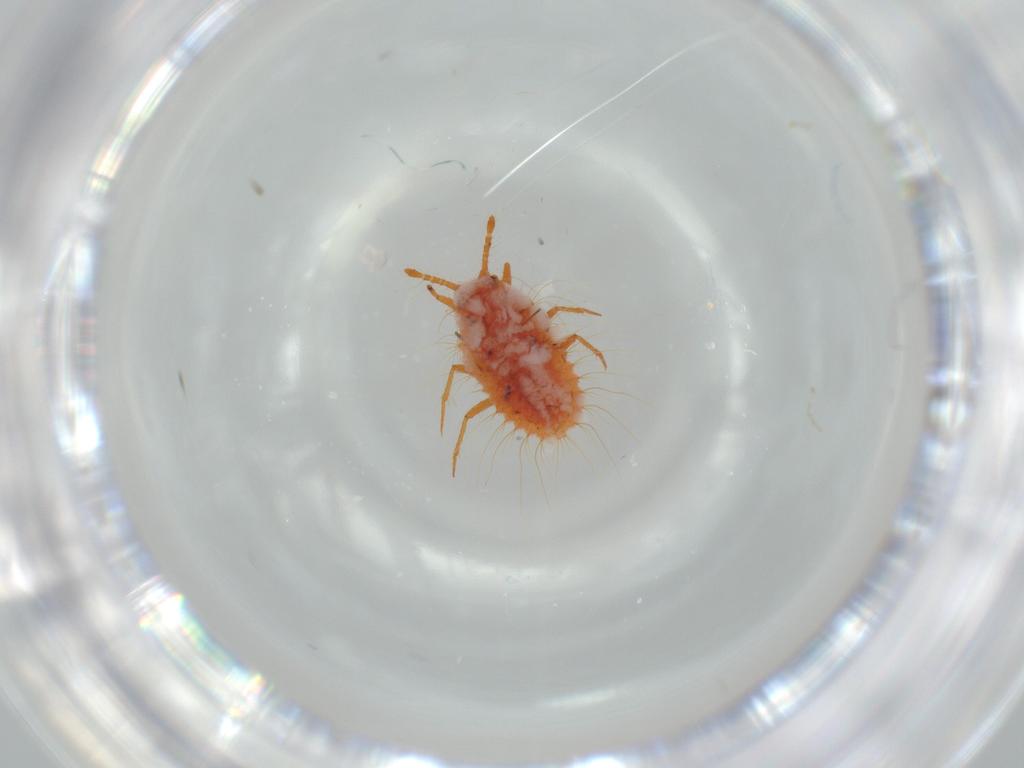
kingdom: Animalia
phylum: Arthropoda
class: Insecta
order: Hemiptera
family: Coccoidea_incertae_sedis
